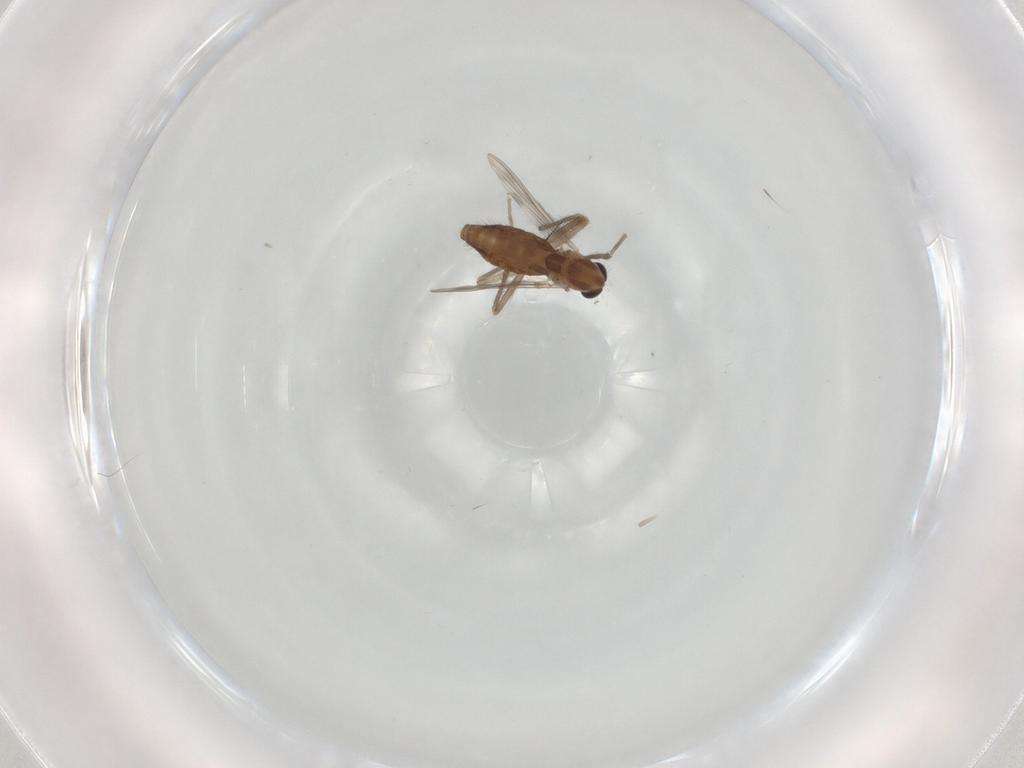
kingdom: Animalia
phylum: Arthropoda
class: Insecta
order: Diptera
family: Chironomidae
